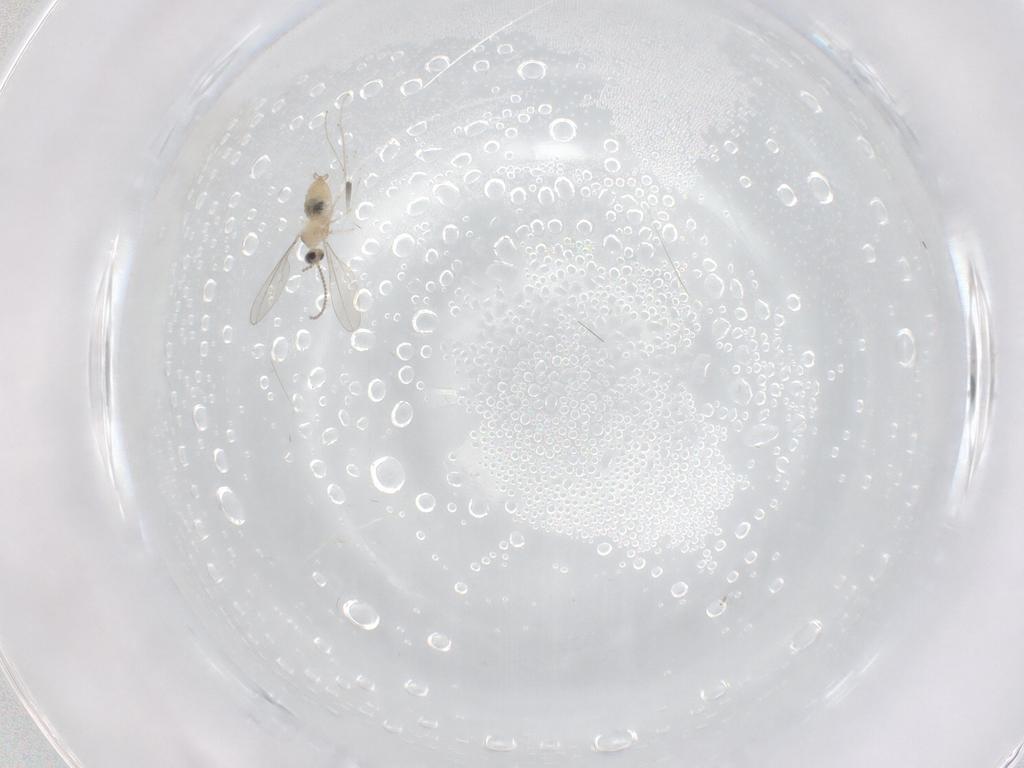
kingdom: Animalia
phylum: Arthropoda
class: Insecta
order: Diptera
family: Cecidomyiidae
